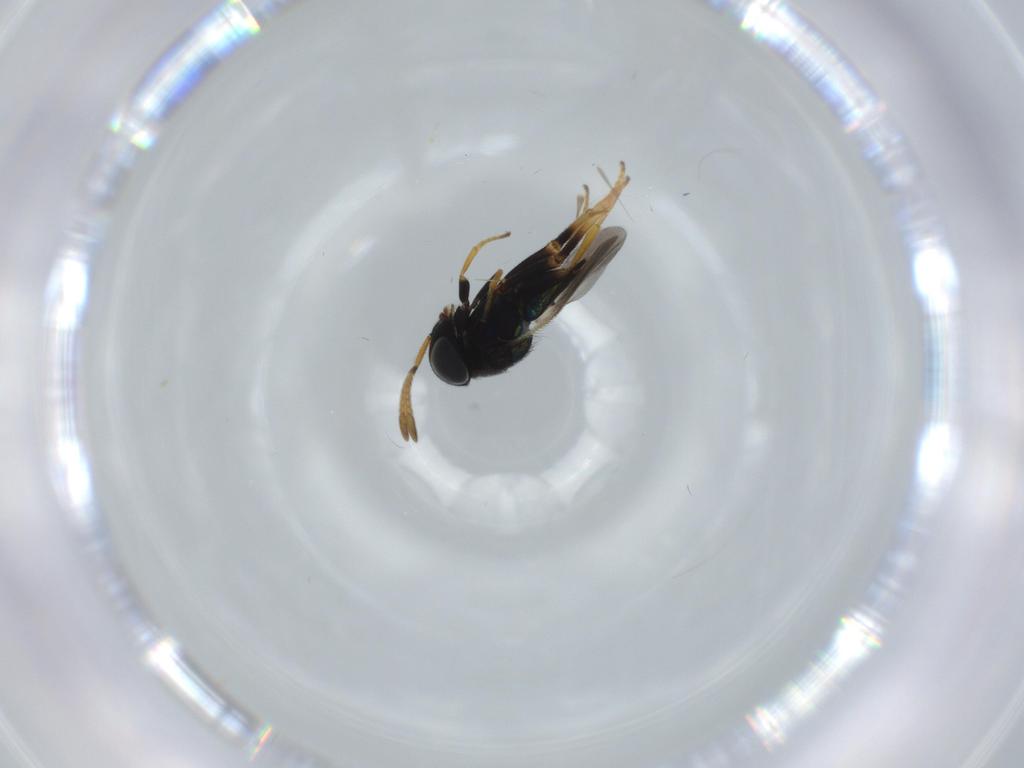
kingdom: Animalia
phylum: Arthropoda
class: Insecta
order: Hymenoptera
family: Encyrtidae
